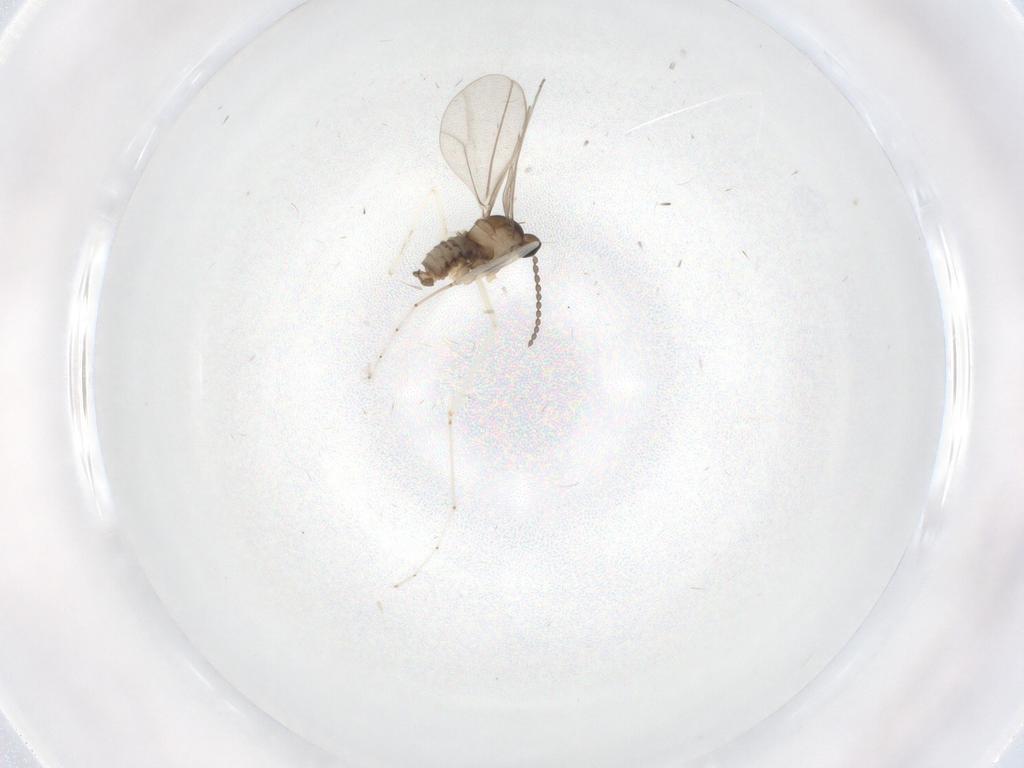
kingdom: Animalia
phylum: Arthropoda
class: Insecta
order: Diptera
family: Cecidomyiidae
